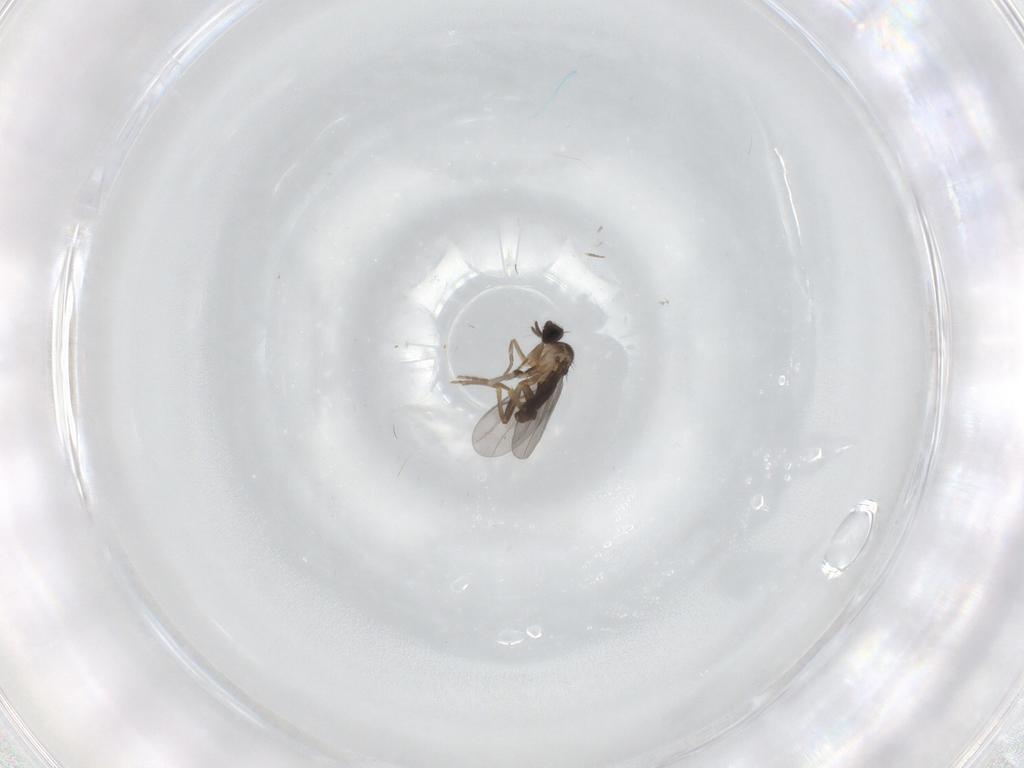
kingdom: Animalia
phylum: Arthropoda
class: Insecta
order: Diptera
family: Drosophilidae
